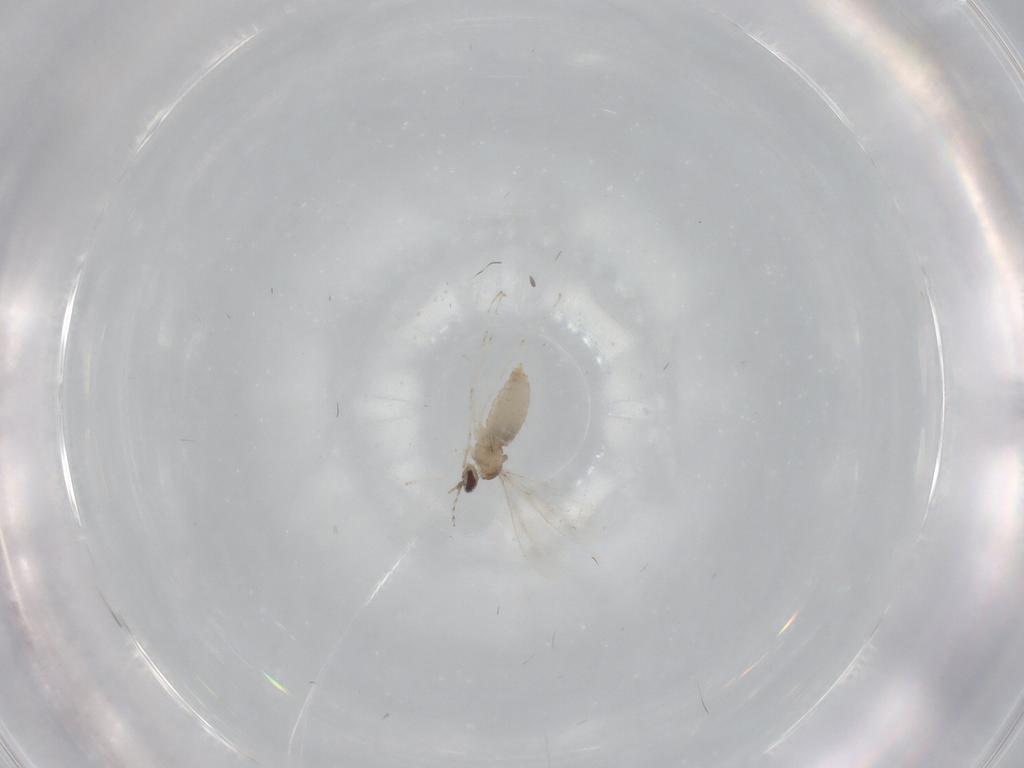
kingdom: Animalia
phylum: Arthropoda
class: Insecta
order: Diptera
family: Cecidomyiidae
